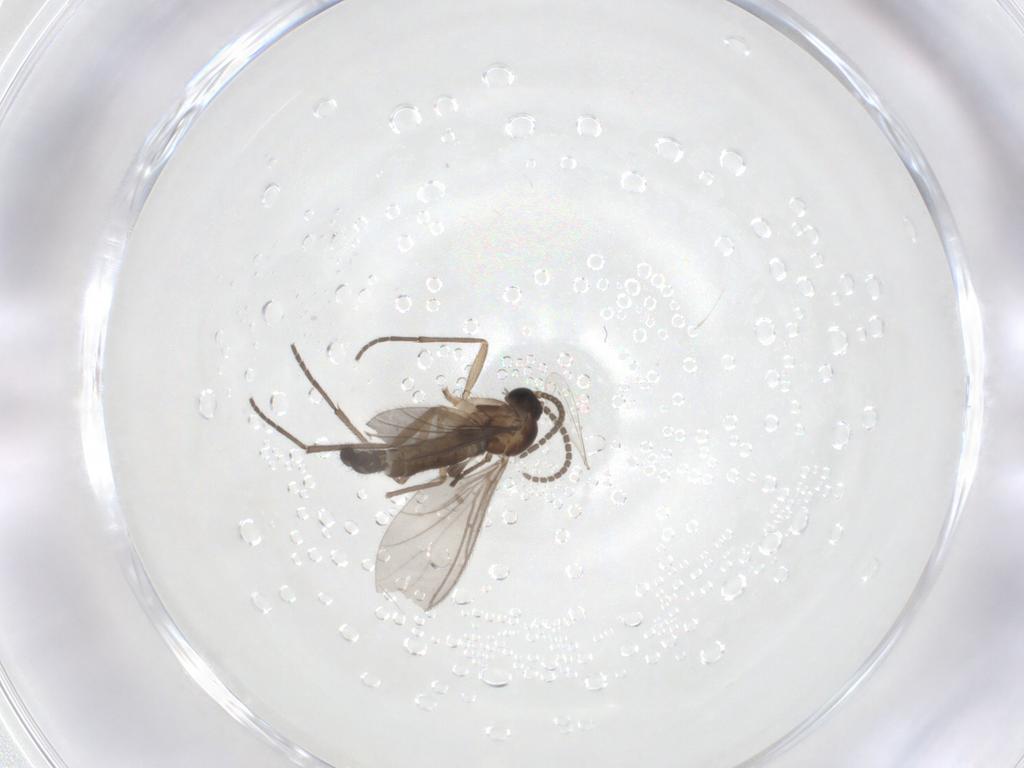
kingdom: Animalia
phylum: Arthropoda
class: Insecta
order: Diptera
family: Sciaridae
